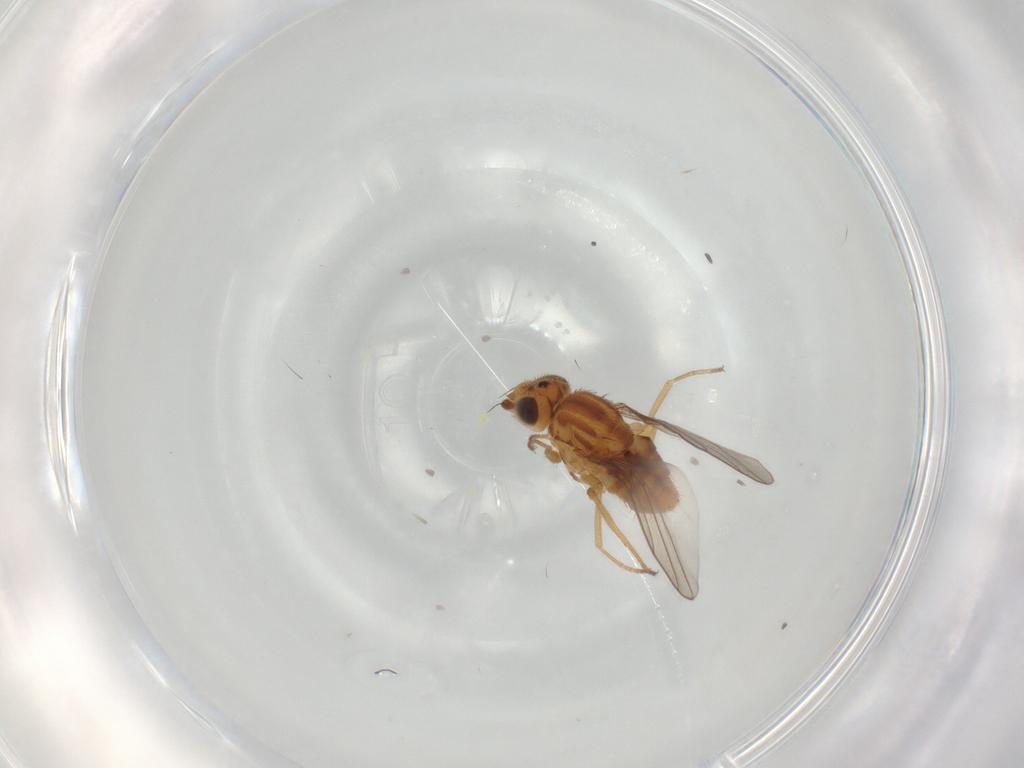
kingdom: Animalia
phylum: Arthropoda
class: Insecta
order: Diptera
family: Chloropidae
